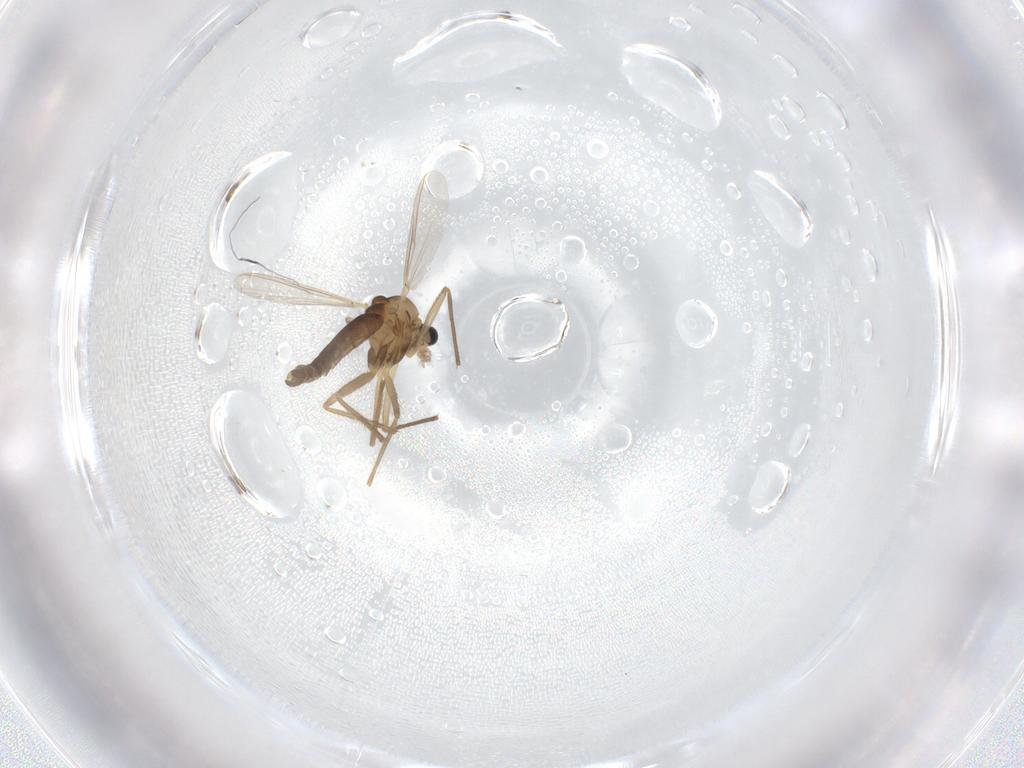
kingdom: Animalia
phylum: Arthropoda
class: Insecta
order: Diptera
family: Chironomidae
